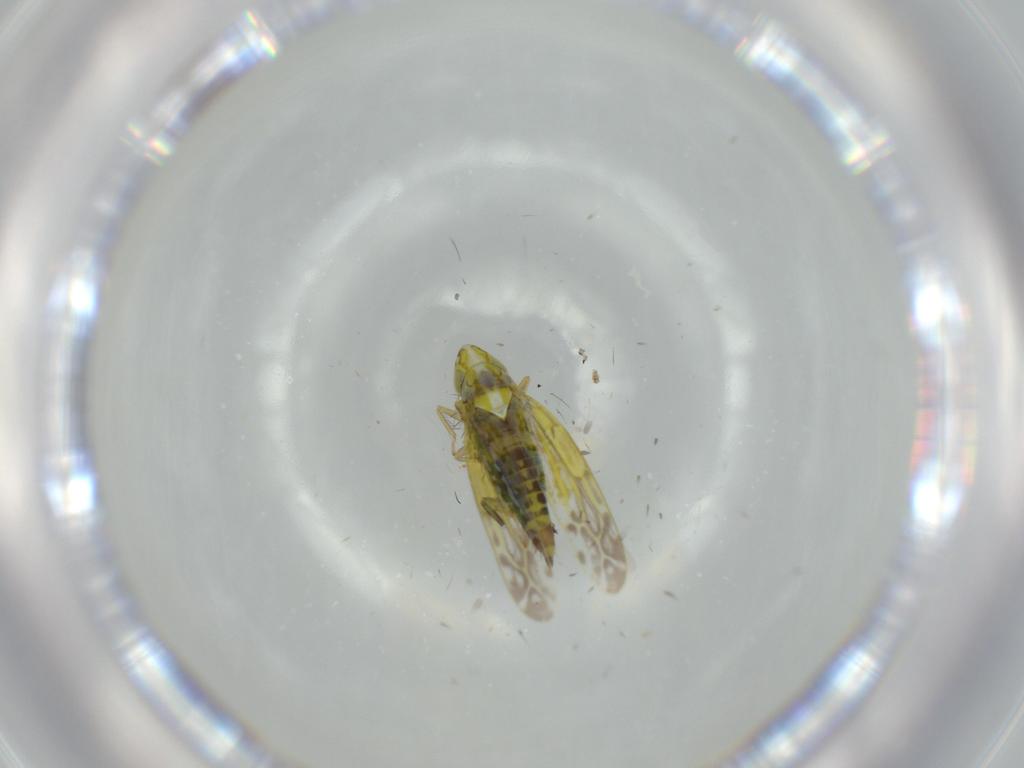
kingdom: Animalia
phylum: Arthropoda
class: Insecta
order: Hemiptera
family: Cicadellidae
